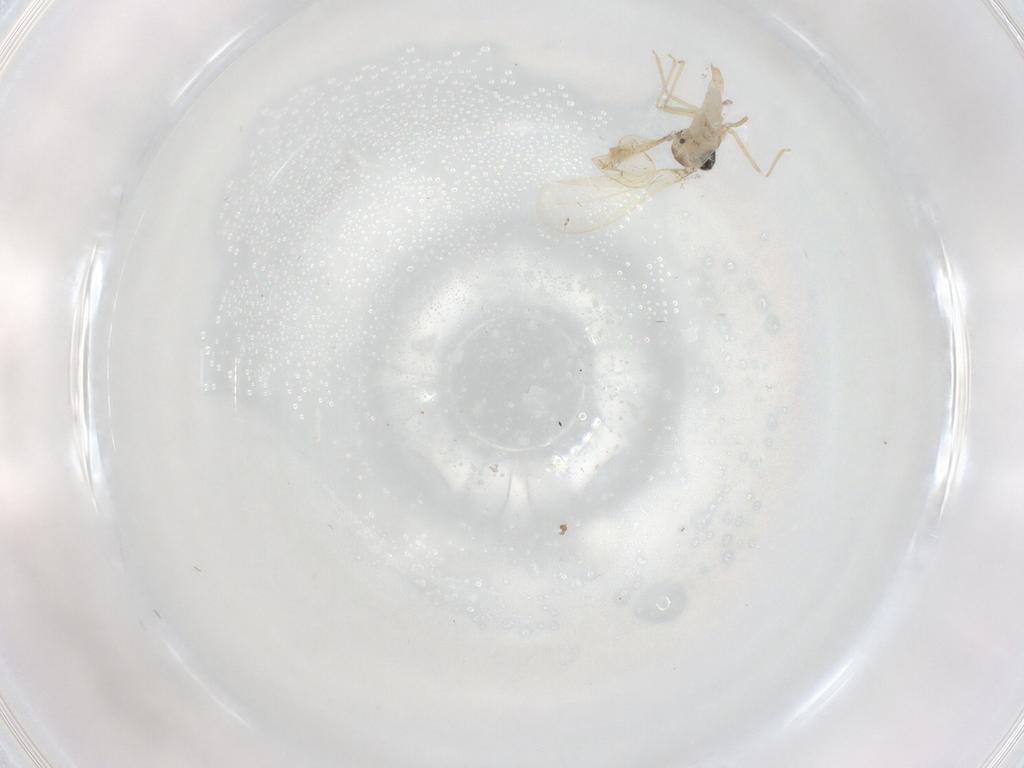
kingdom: Animalia
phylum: Arthropoda
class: Insecta
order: Diptera
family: Cecidomyiidae
